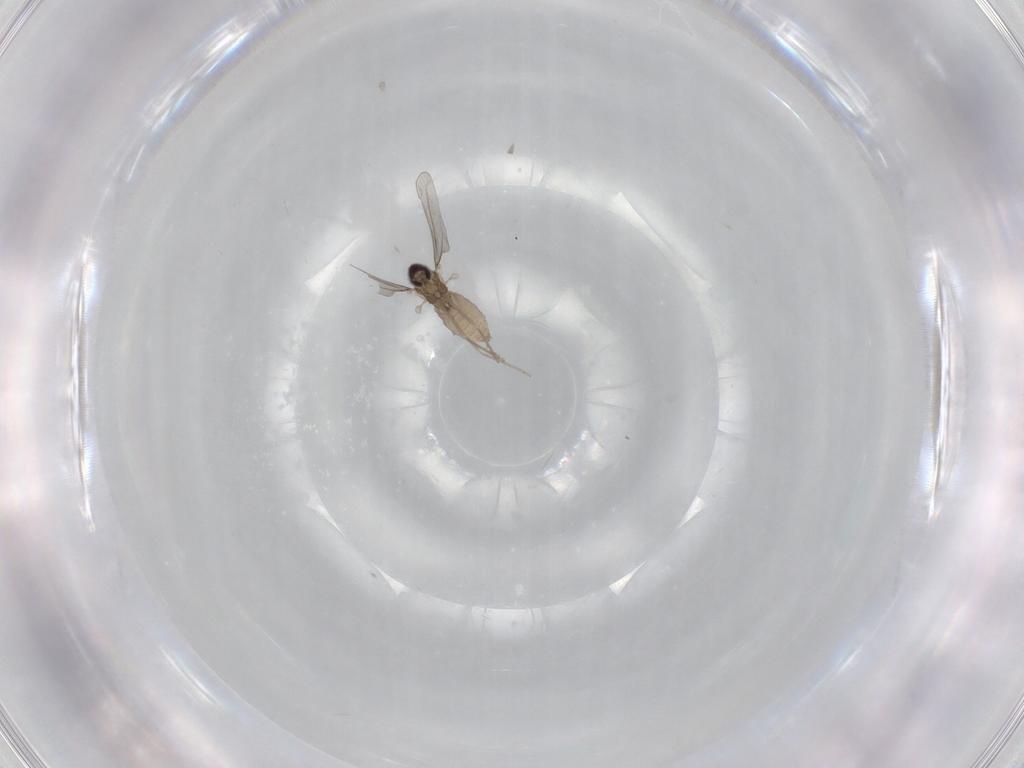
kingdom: Animalia
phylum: Arthropoda
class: Insecta
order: Diptera
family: Cecidomyiidae
